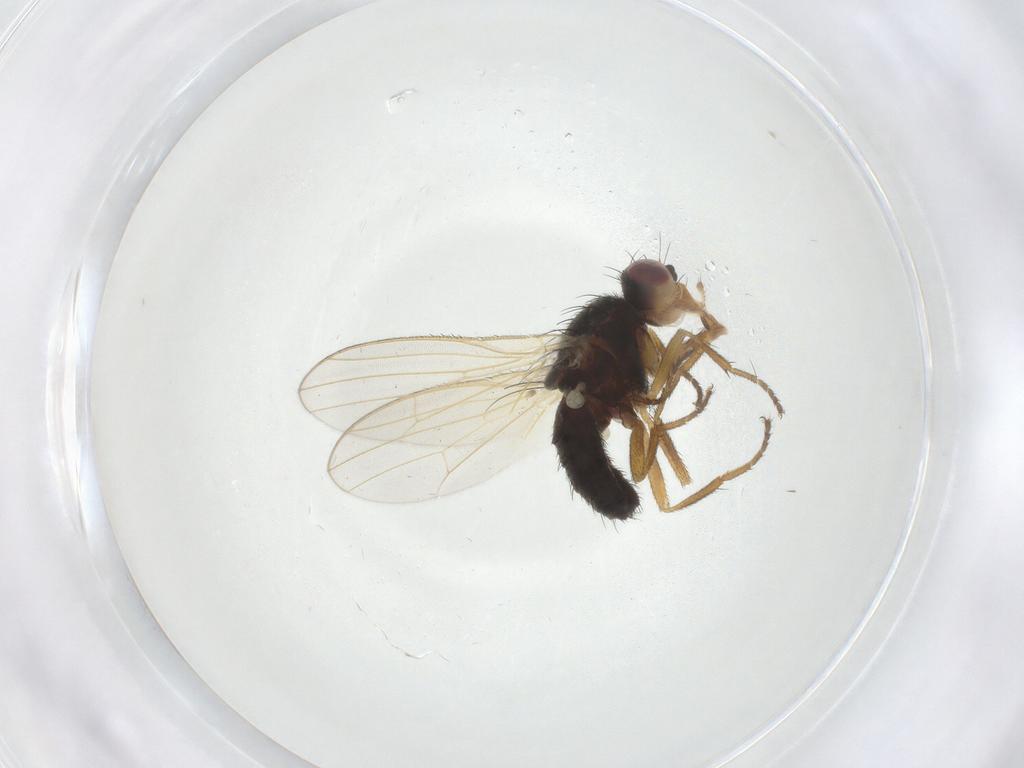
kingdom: Animalia
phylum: Arthropoda
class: Insecta
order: Diptera
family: Heleomyzidae
